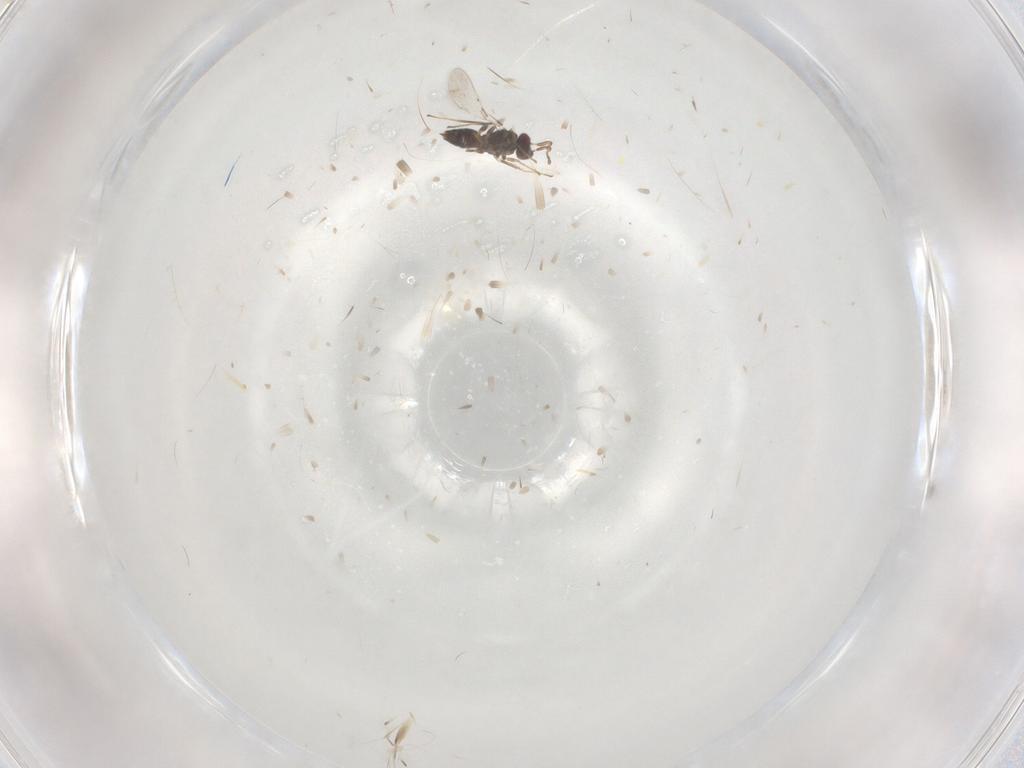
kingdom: Animalia
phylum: Arthropoda
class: Insecta
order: Hymenoptera
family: Mymaridae
